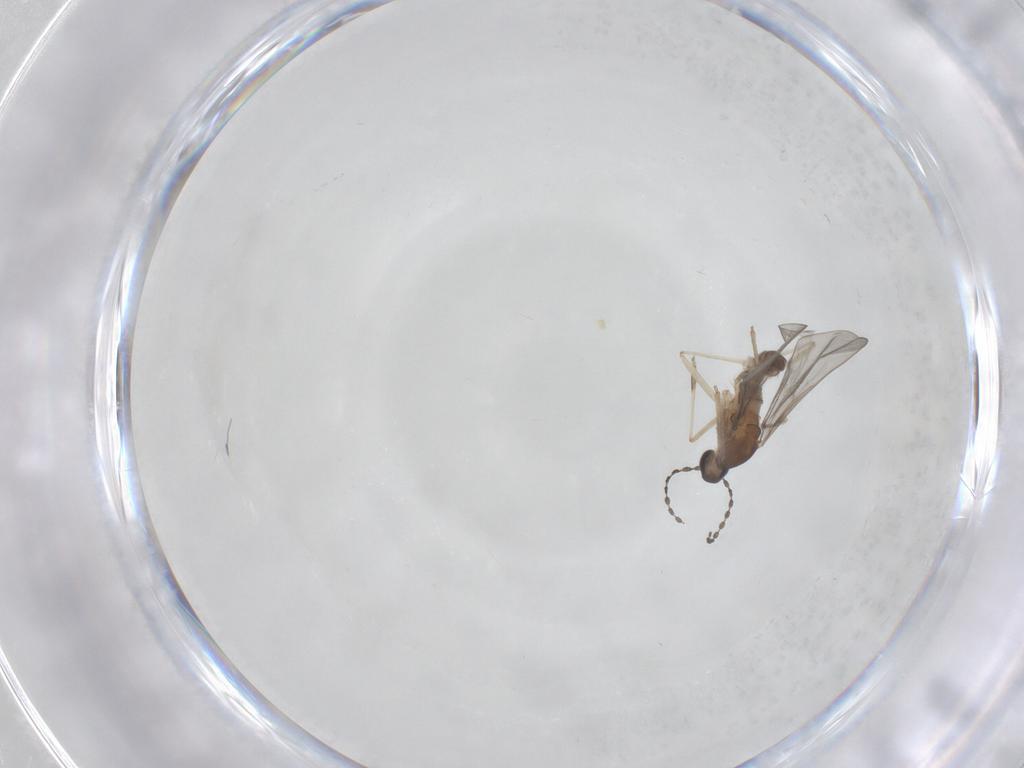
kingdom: Animalia
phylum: Arthropoda
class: Insecta
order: Diptera
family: Cecidomyiidae
